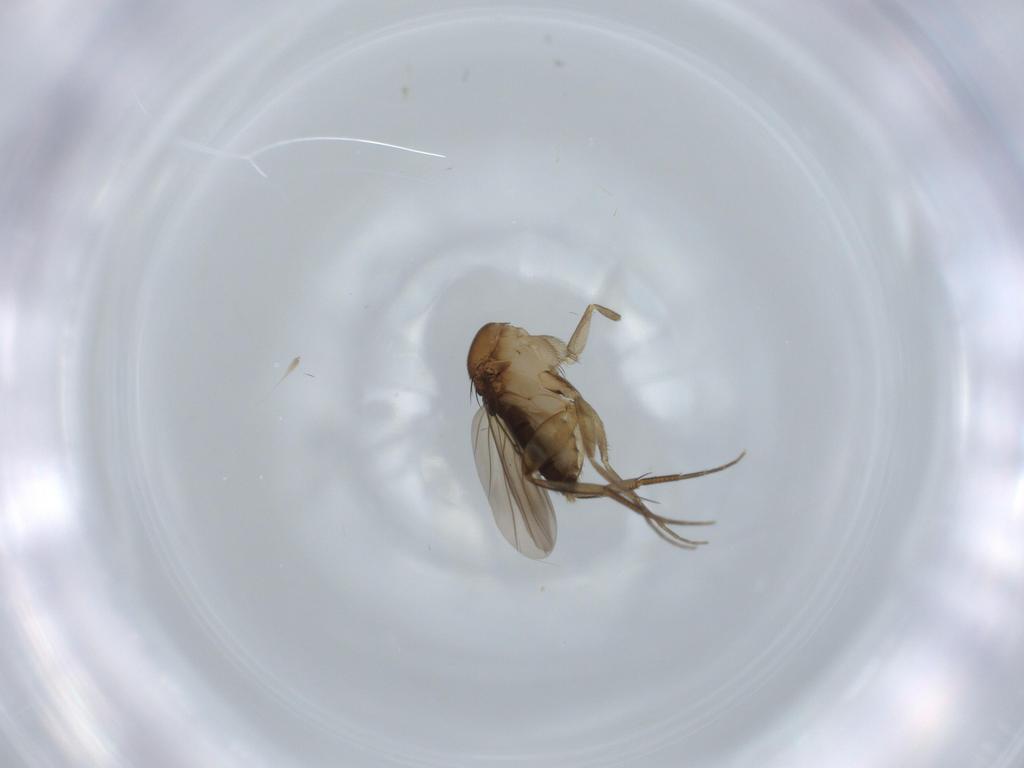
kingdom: Animalia
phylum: Arthropoda
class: Insecta
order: Diptera
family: Phoridae
